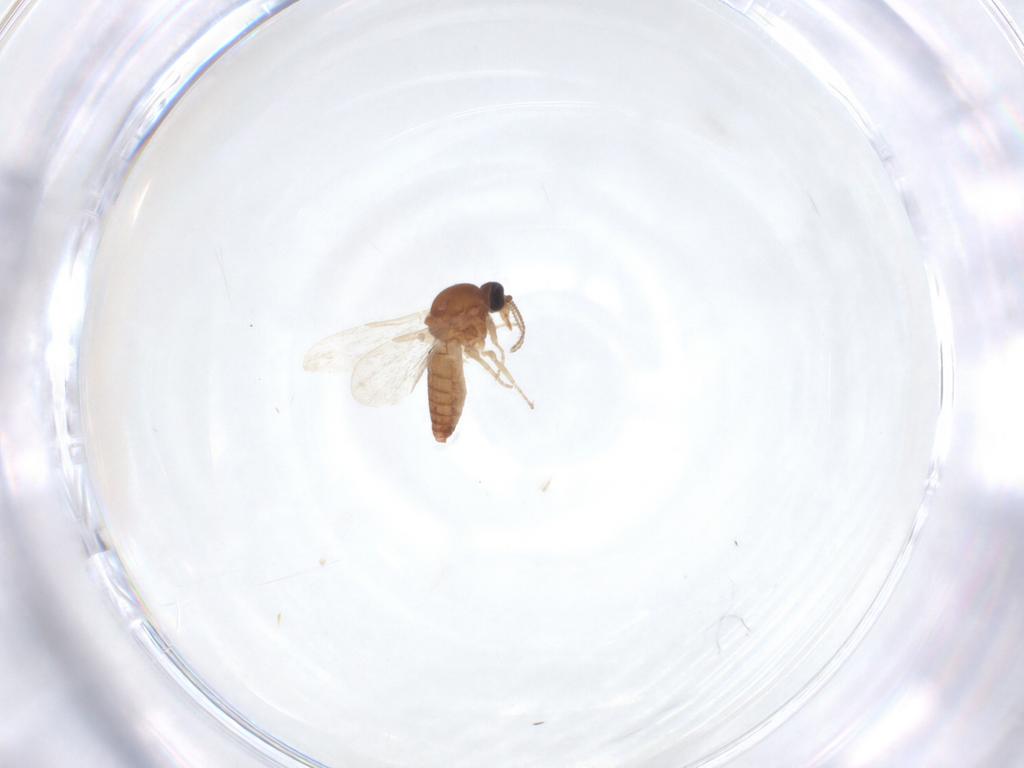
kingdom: Animalia
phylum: Arthropoda
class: Insecta
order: Diptera
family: Ceratopogonidae
